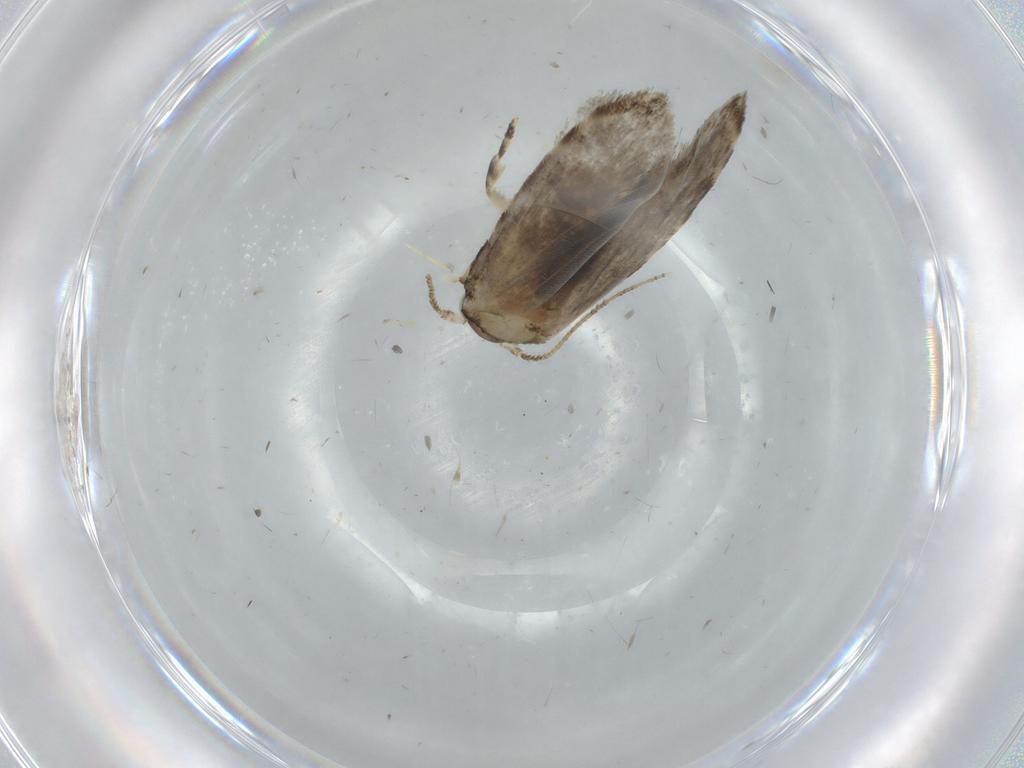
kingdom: Animalia
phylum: Arthropoda
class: Insecta
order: Lepidoptera
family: Tineidae
